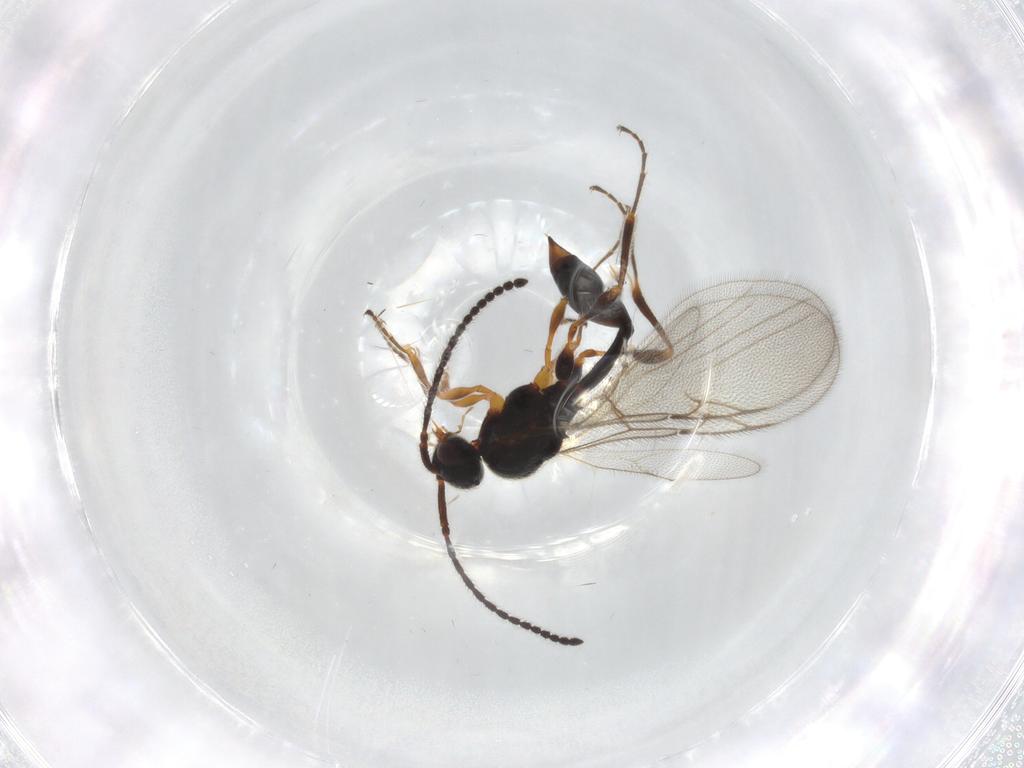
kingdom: Animalia
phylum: Arthropoda
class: Insecta
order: Hymenoptera
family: Diapriidae
